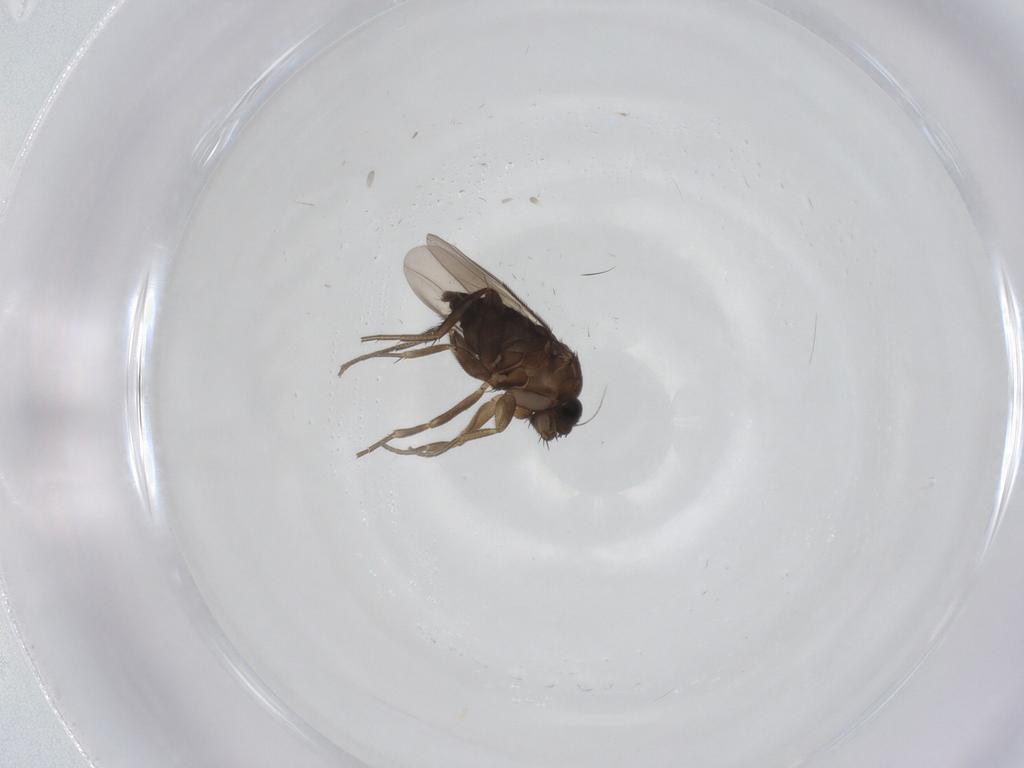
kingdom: Animalia
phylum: Arthropoda
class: Insecta
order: Diptera
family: Phoridae
